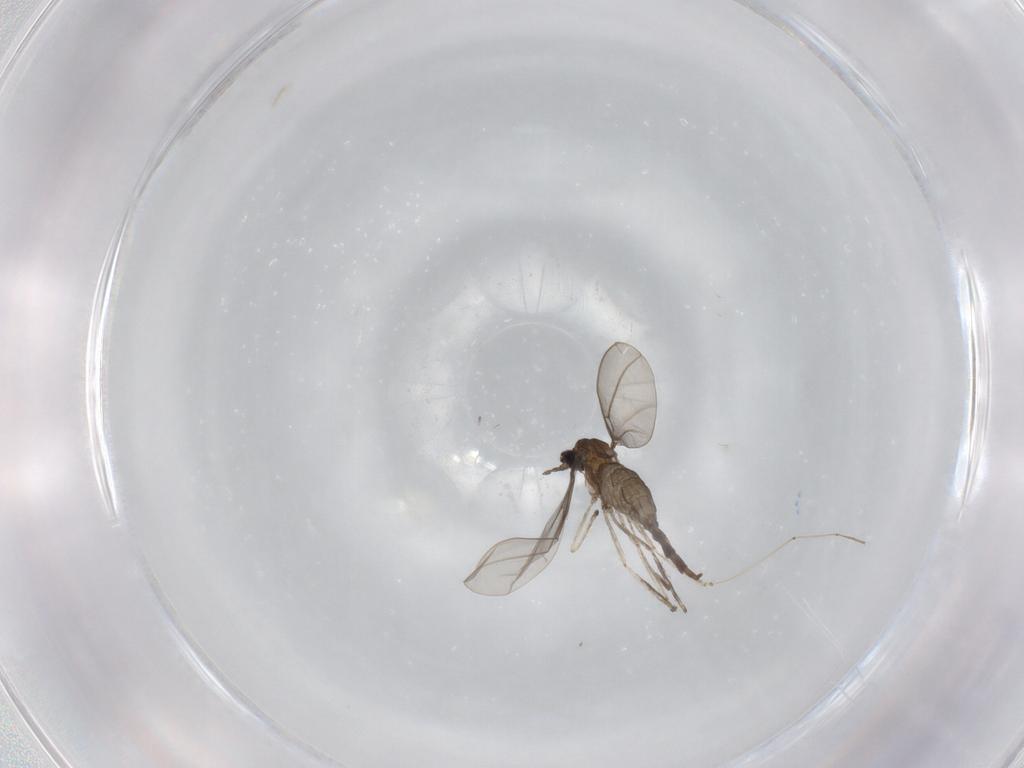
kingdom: Animalia
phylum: Arthropoda
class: Insecta
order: Diptera
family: Cecidomyiidae
